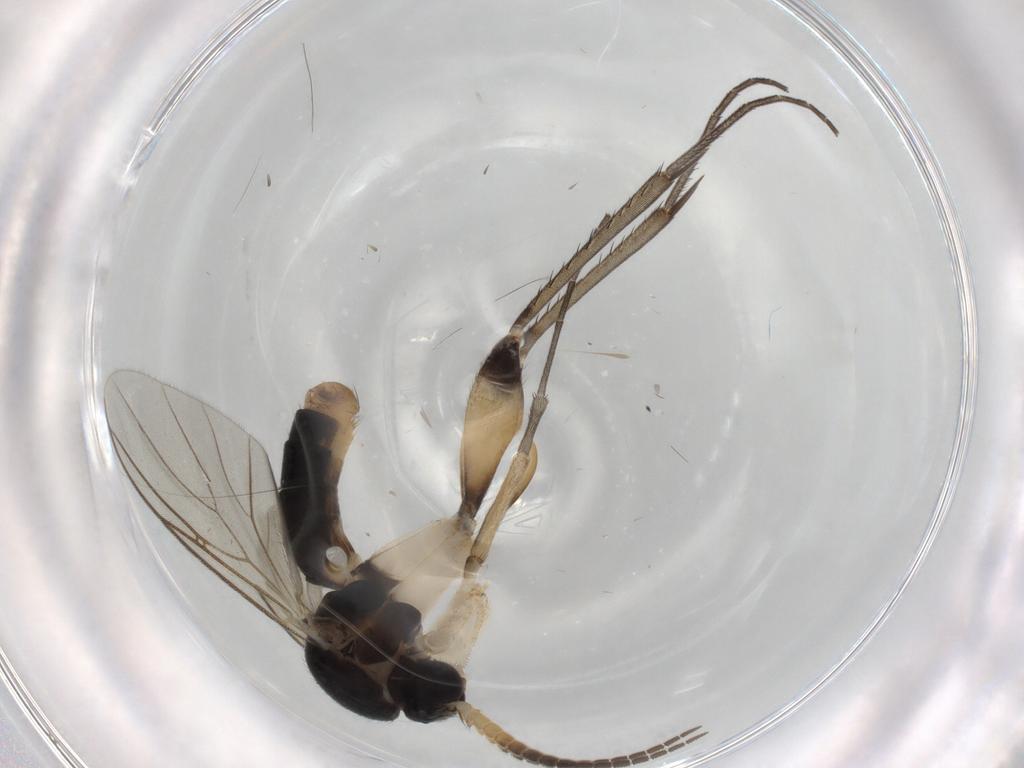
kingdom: Animalia
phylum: Arthropoda
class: Insecta
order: Diptera
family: Mycetophilidae
